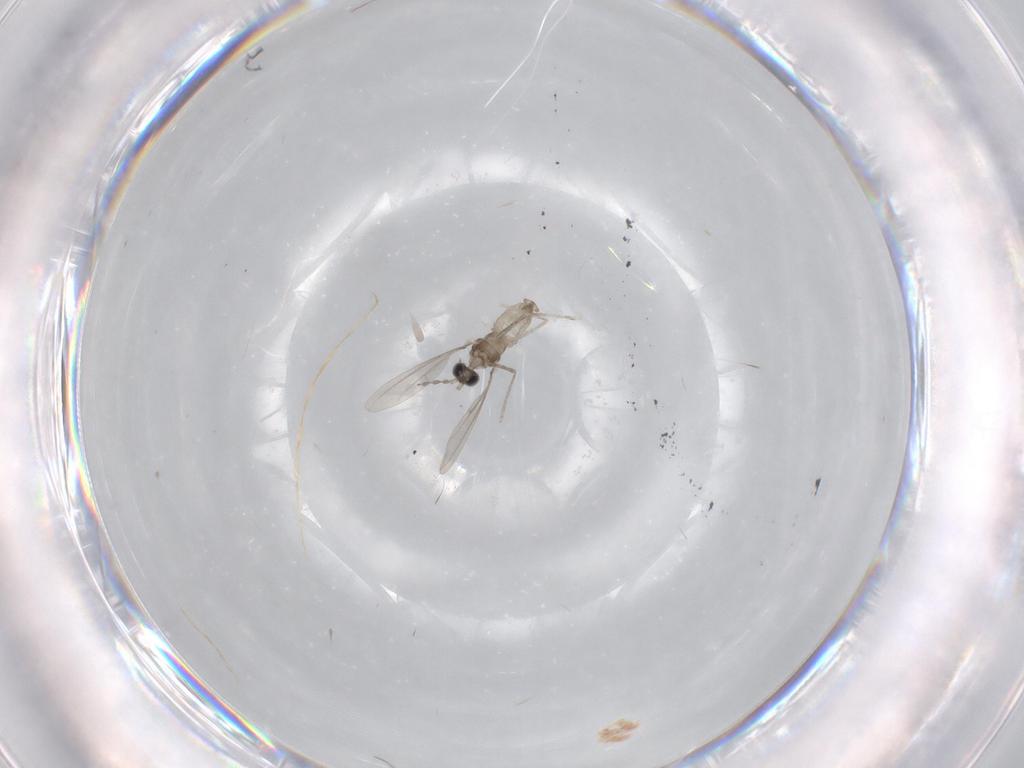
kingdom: Animalia
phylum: Arthropoda
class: Insecta
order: Diptera
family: Cecidomyiidae
